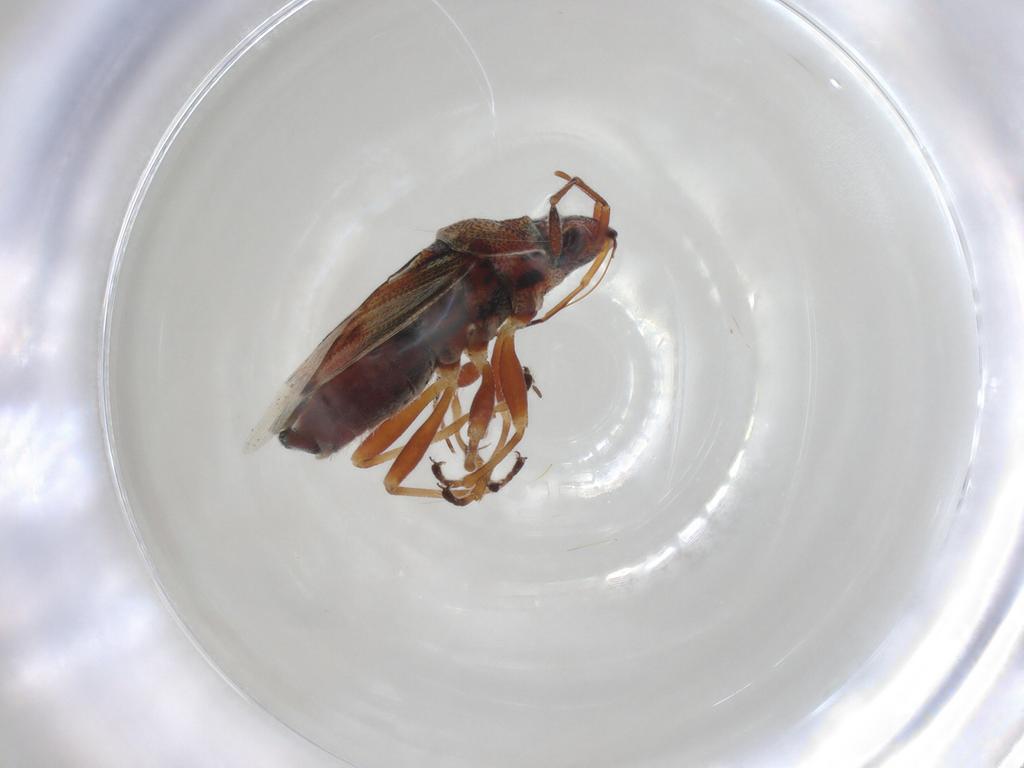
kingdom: Animalia
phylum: Arthropoda
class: Insecta
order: Hemiptera
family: Lygaeidae
